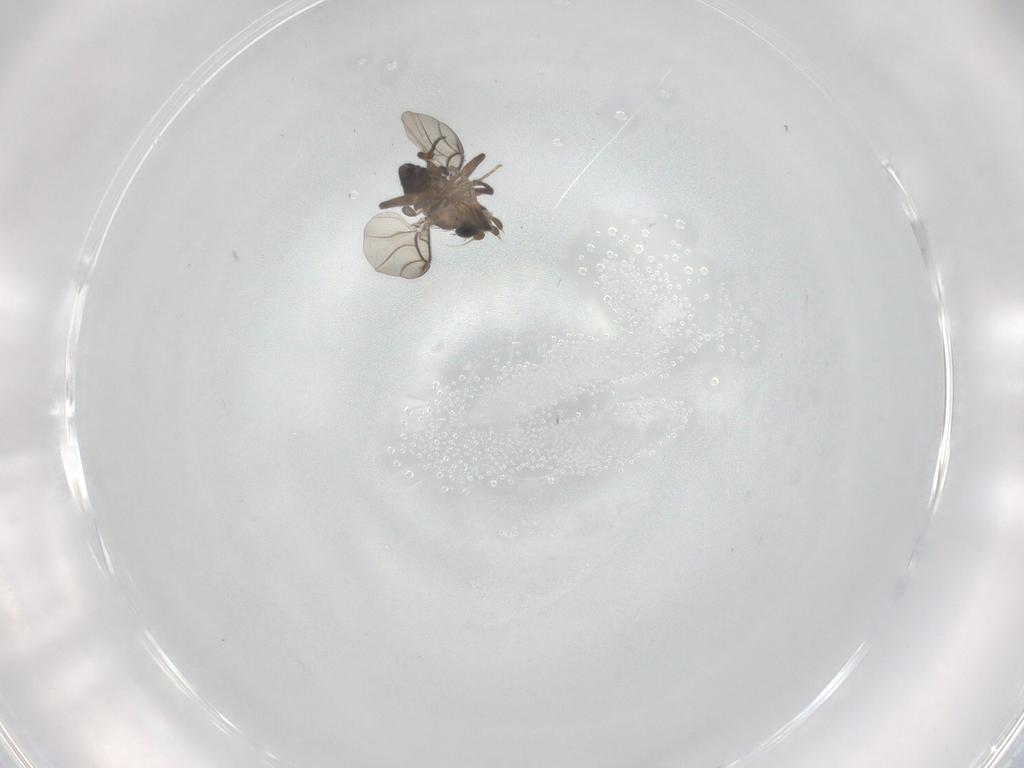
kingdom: Animalia
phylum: Arthropoda
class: Insecta
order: Diptera
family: Phoridae
